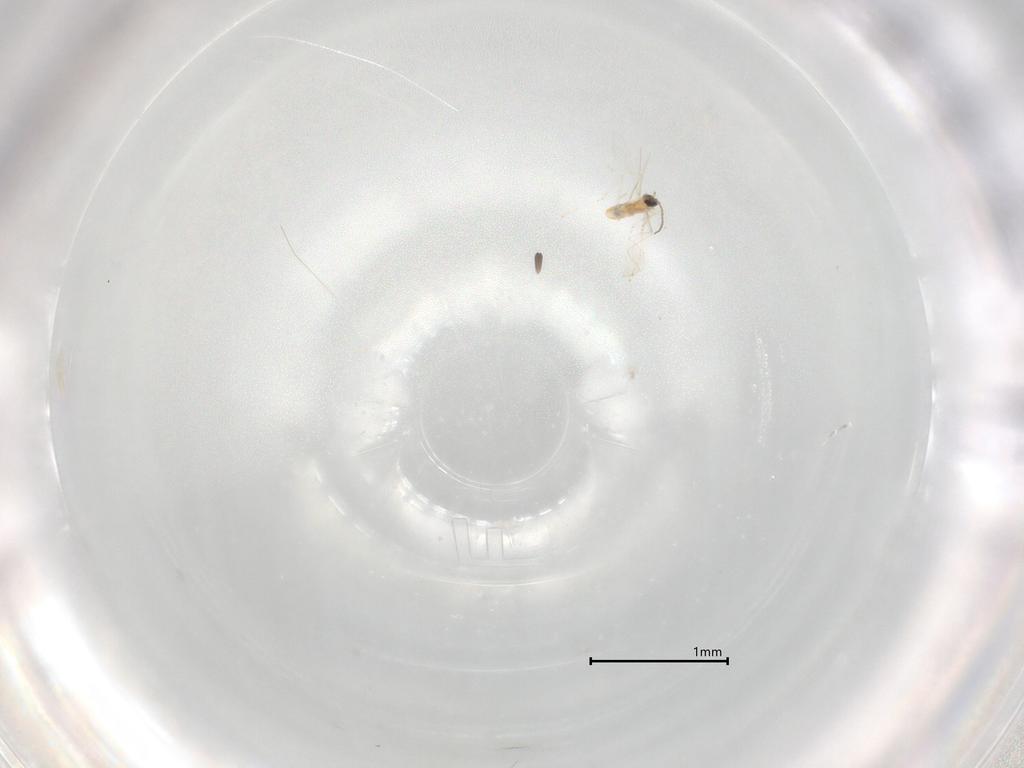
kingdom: Animalia
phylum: Arthropoda
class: Insecta
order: Diptera
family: Cecidomyiidae
